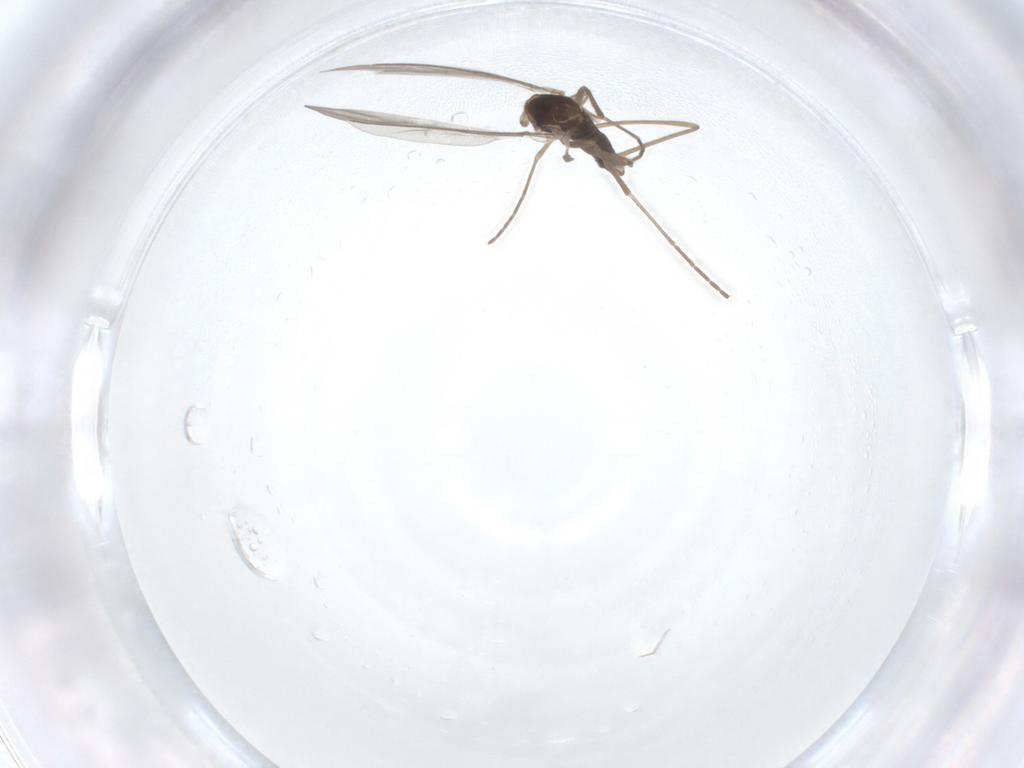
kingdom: Animalia
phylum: Arthropoda
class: Insecta
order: Diptera
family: Cecidomyiidae
